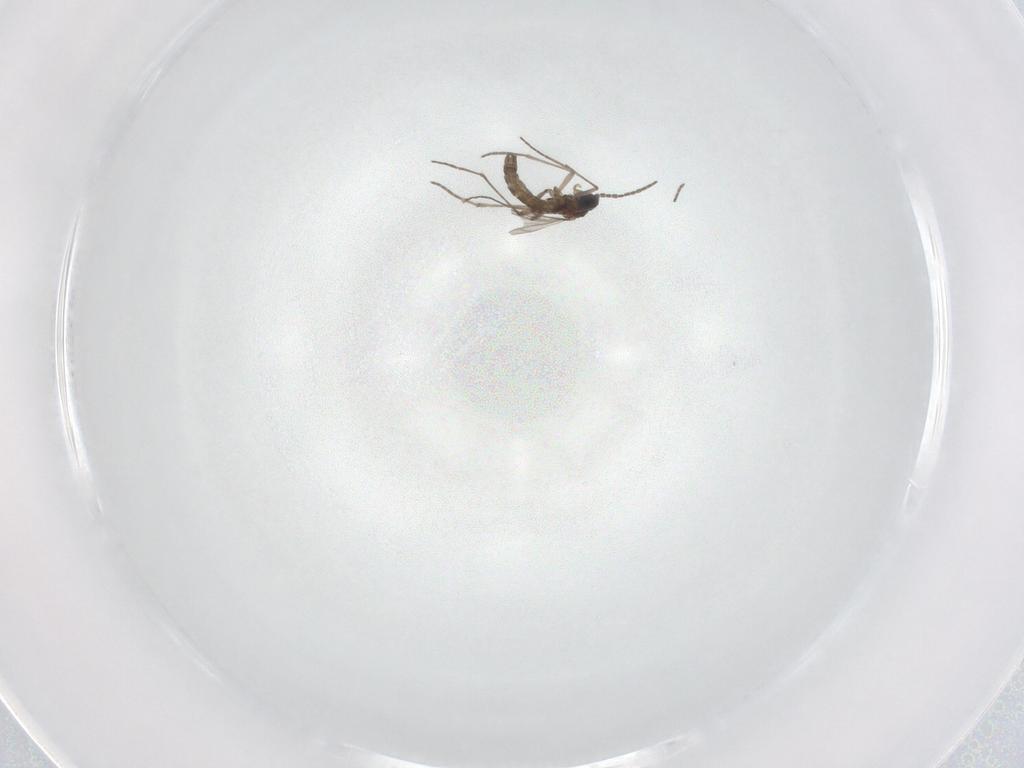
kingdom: Animalia
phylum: Arthropoda
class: Insecta
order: Diptera
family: Sciaridae
